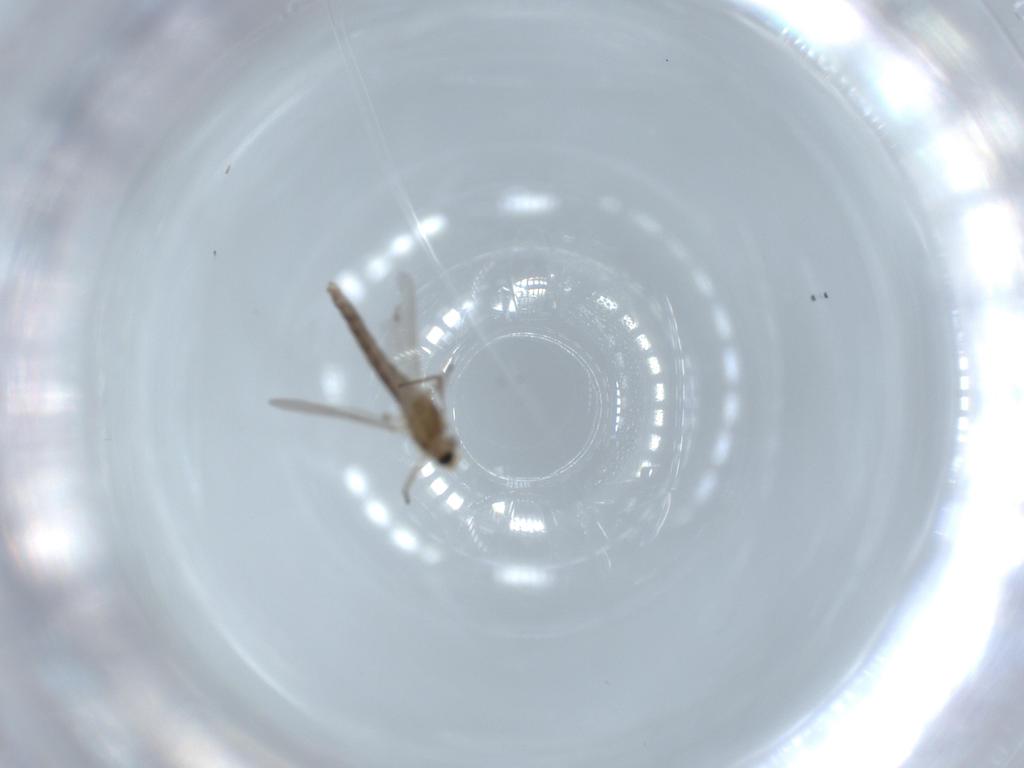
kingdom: Animalia
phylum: Arthropoda
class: Insecta
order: Diptera
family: Chironomidae
